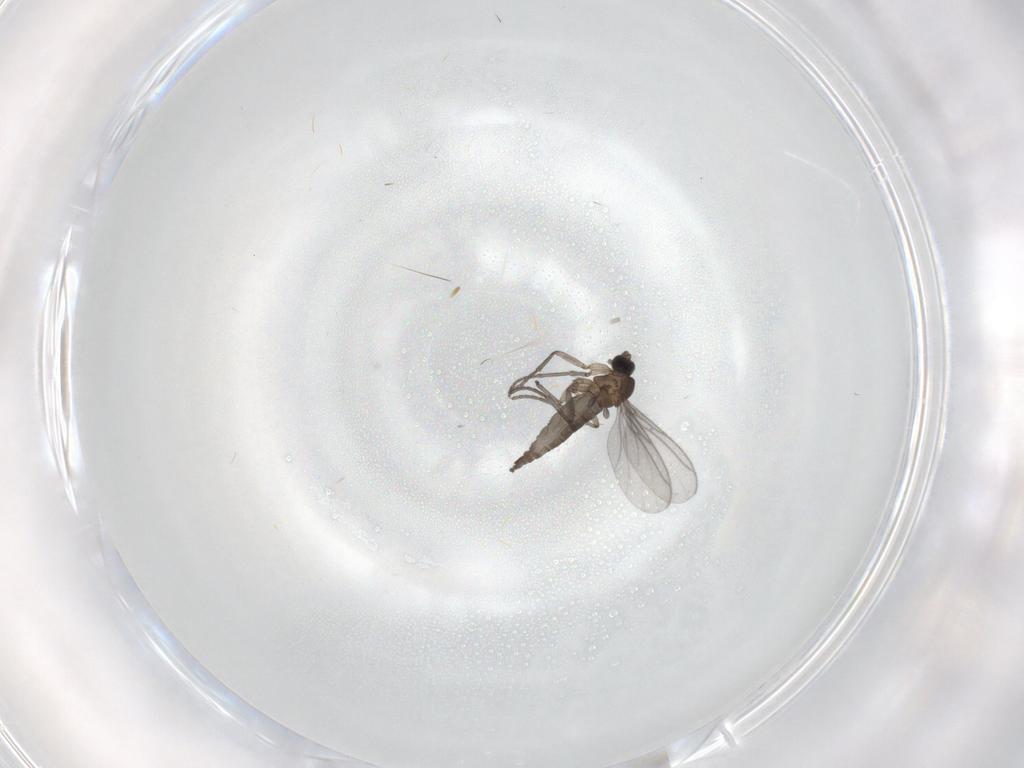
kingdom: Animalia
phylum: Arthropoda
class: Insecta
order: Diptera
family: Sciaridae
